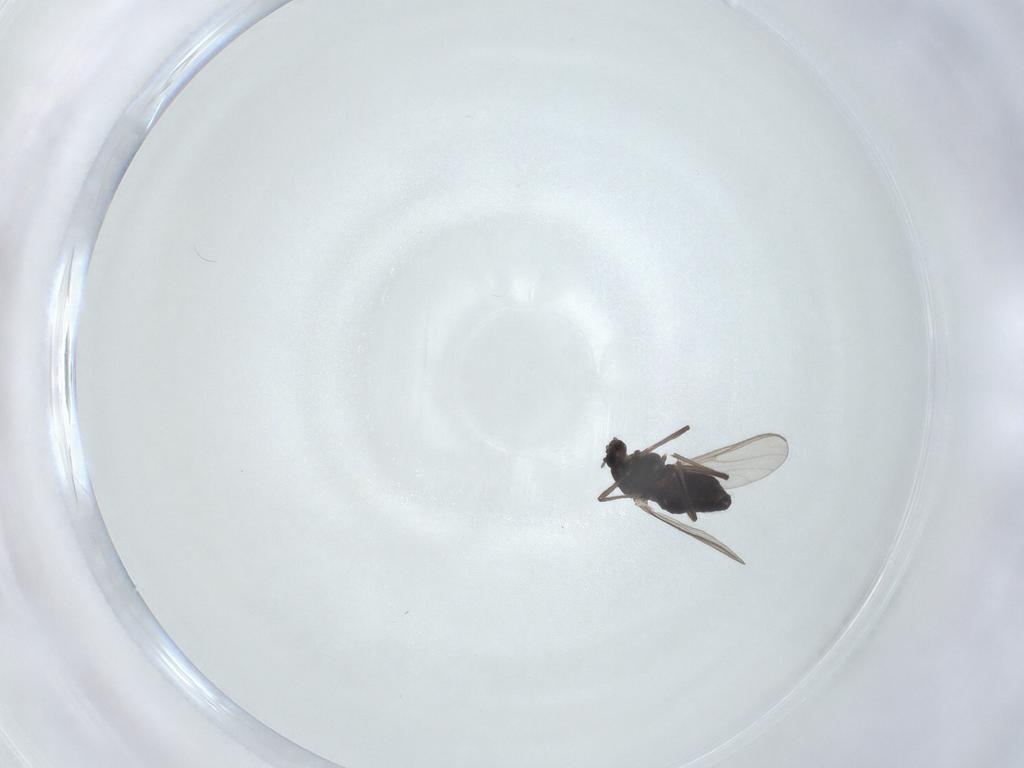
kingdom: Animalia
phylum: Arthropoda
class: Insecta
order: Diptera
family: Chironomidae
